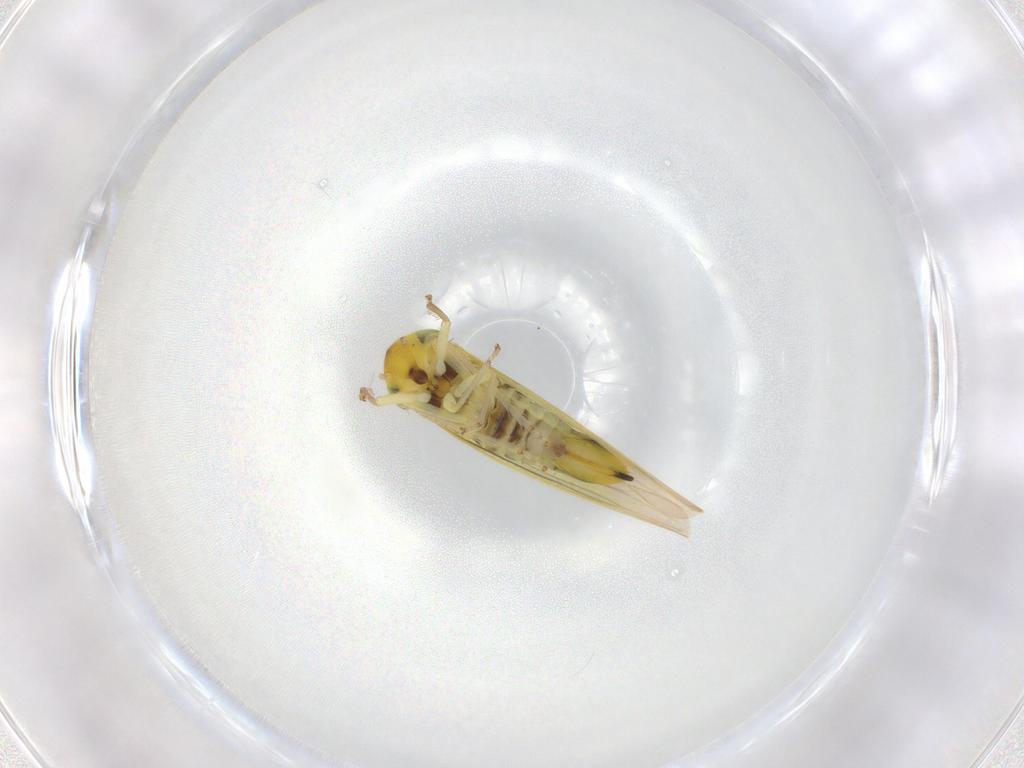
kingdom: Animalia
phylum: Arthropoda
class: Insecta
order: Hemiptera
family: Cicadellidae
